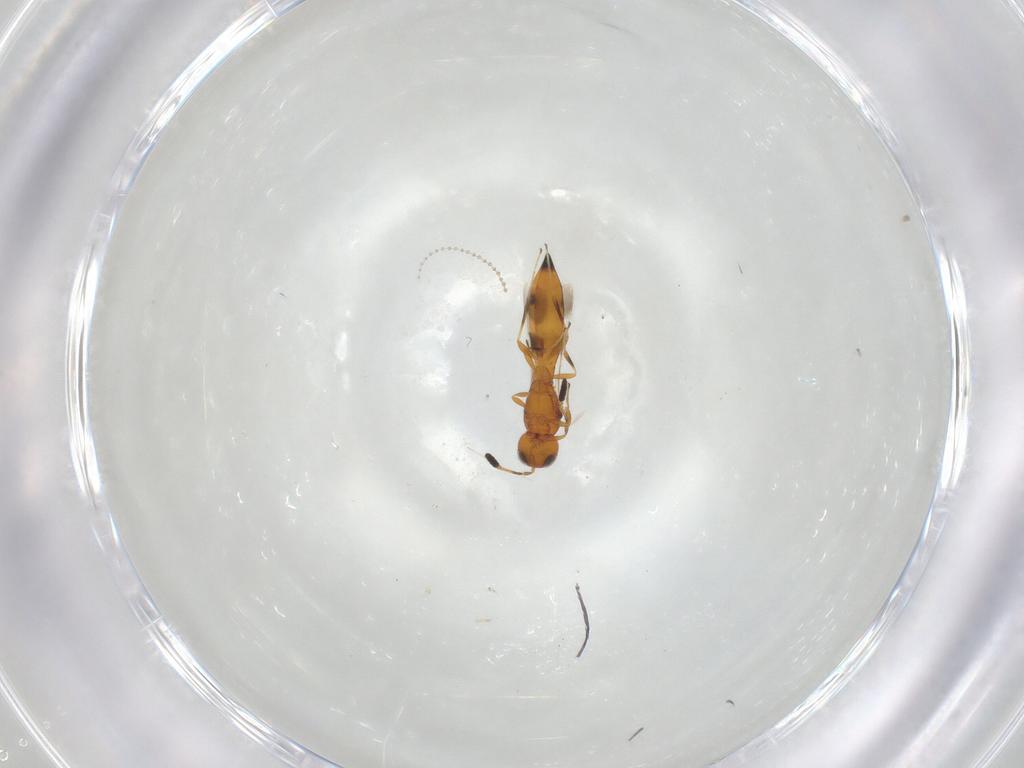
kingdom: Animalia
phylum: Arthropoda
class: Insecta
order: Hymenoptera
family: Scelionidae
